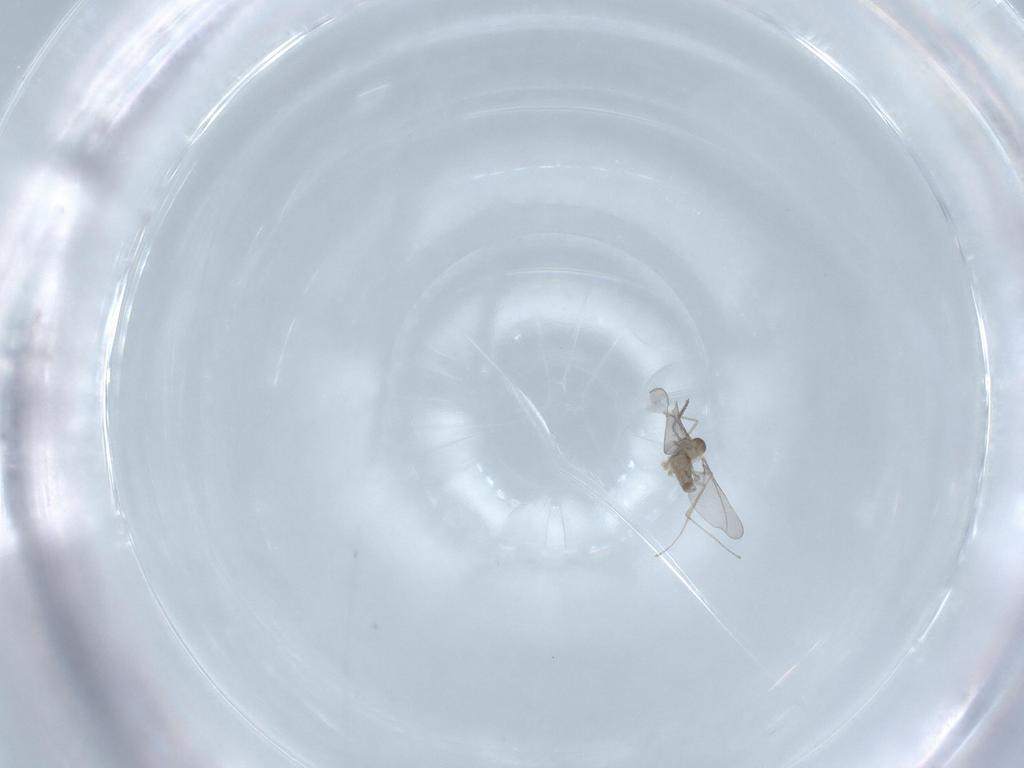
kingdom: Animalia
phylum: Arthropoda
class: Insecta
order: Diptera
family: Cecidomyiidae
